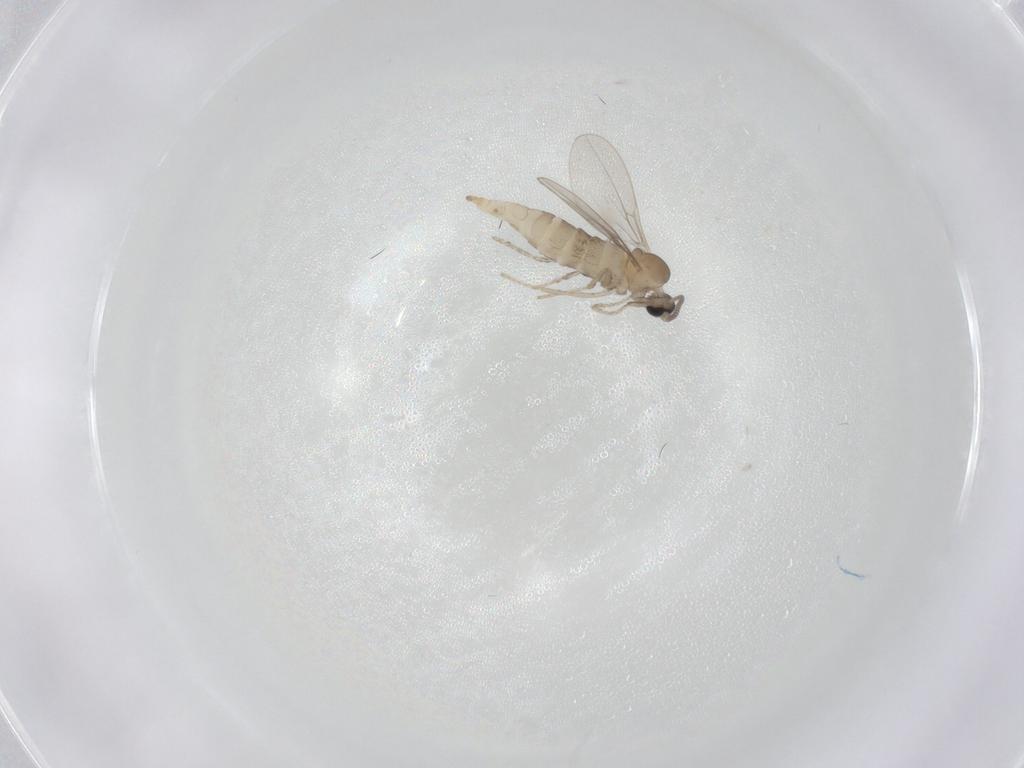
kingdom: Animalia
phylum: Arthropoda
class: Insecta
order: Diptera
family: Cecidomyiidae
